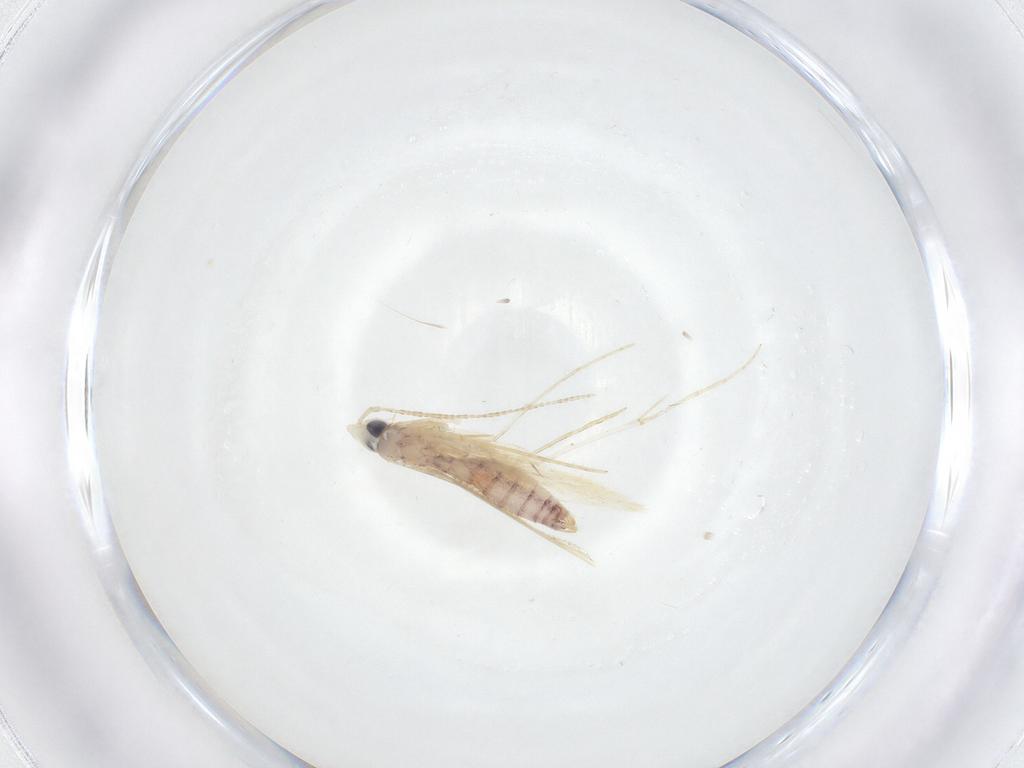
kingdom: Animalia
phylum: Arthropoda
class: Insecta
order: Lepidoptera
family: Saturniidae
